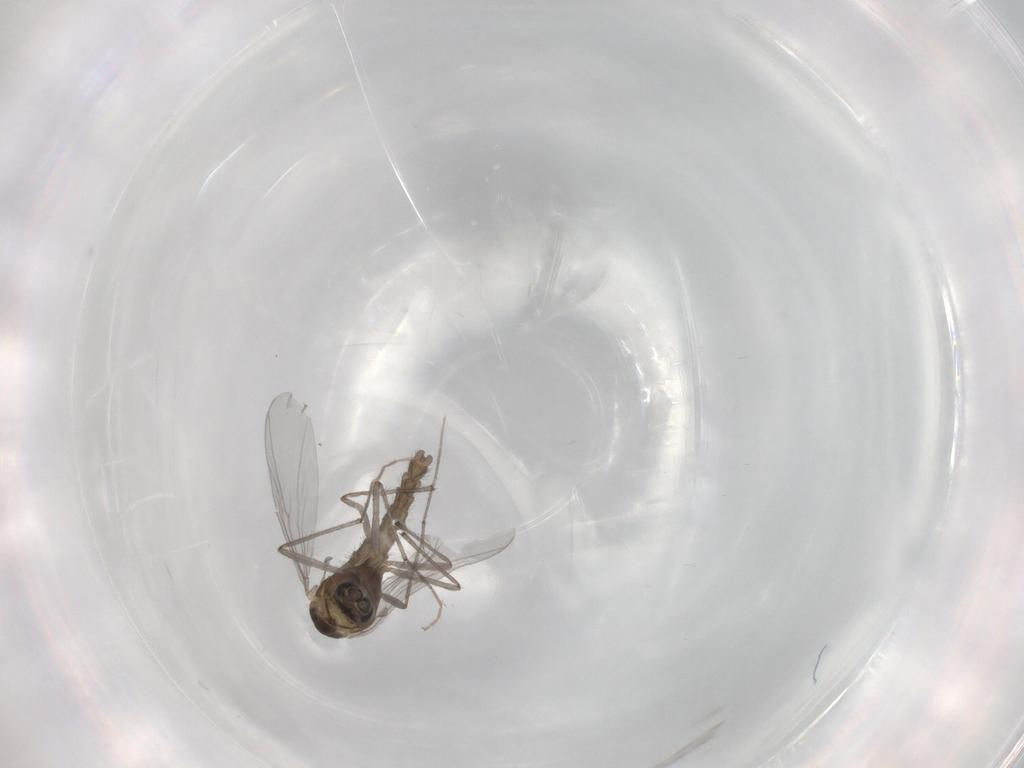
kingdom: Animalia
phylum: Arthropoda
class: Insecta
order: Diptera
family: Chironomidae
